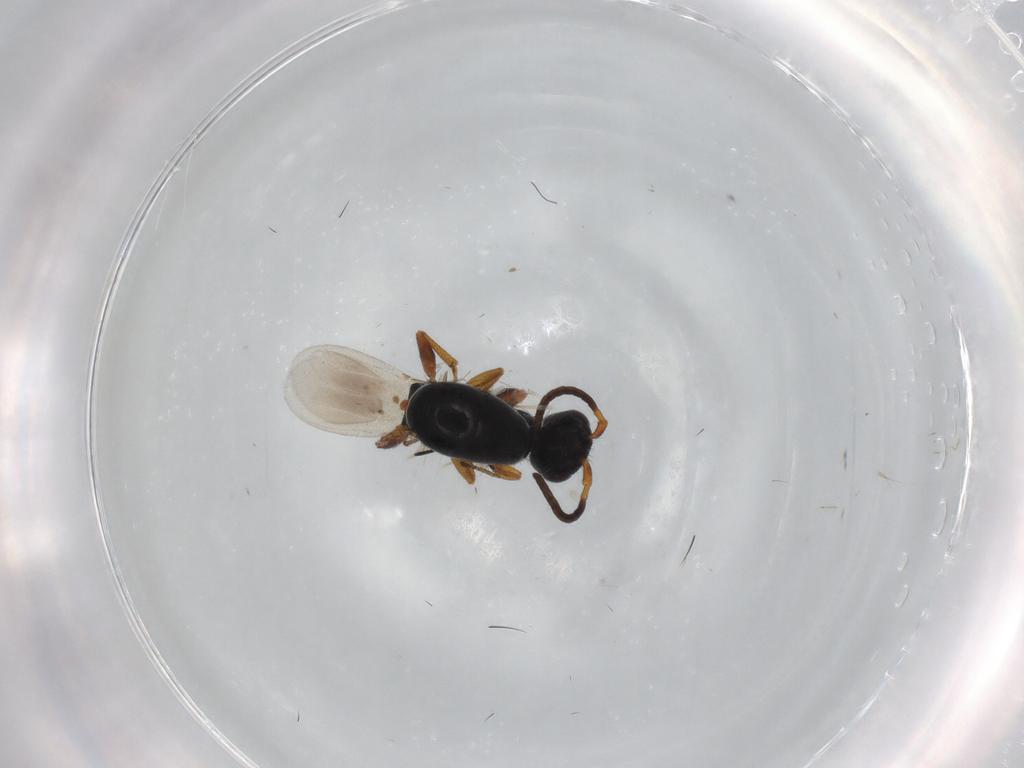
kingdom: Animalia
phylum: Arthropoda
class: Insecta
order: Hymenoptera
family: Bethylidae
